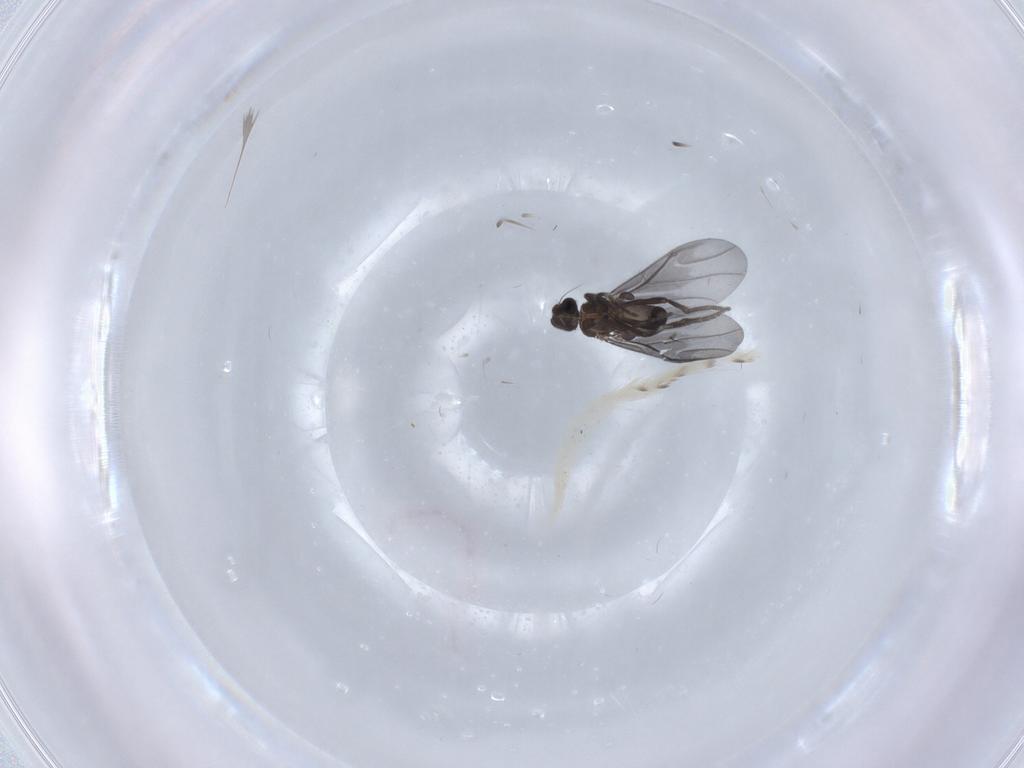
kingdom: Animalia
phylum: Arthropoda
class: Insecta
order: Diptera
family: Phoridae
